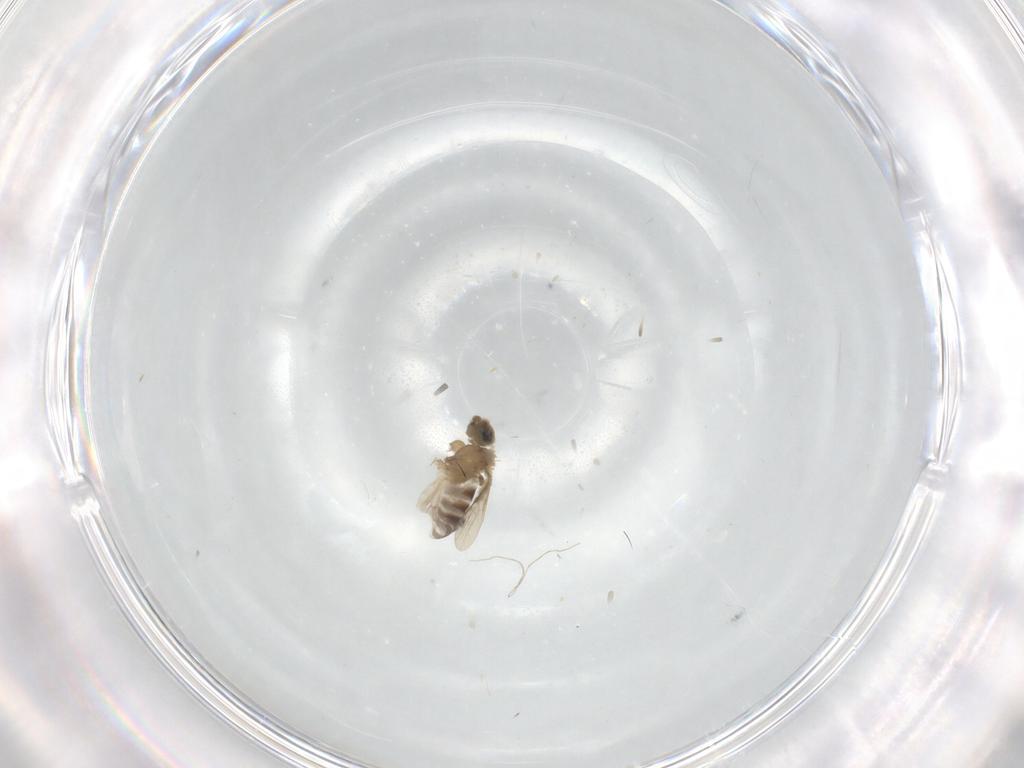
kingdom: Animalia
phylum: Arthropoda
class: Insecta
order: Diptera
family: Phoridae
